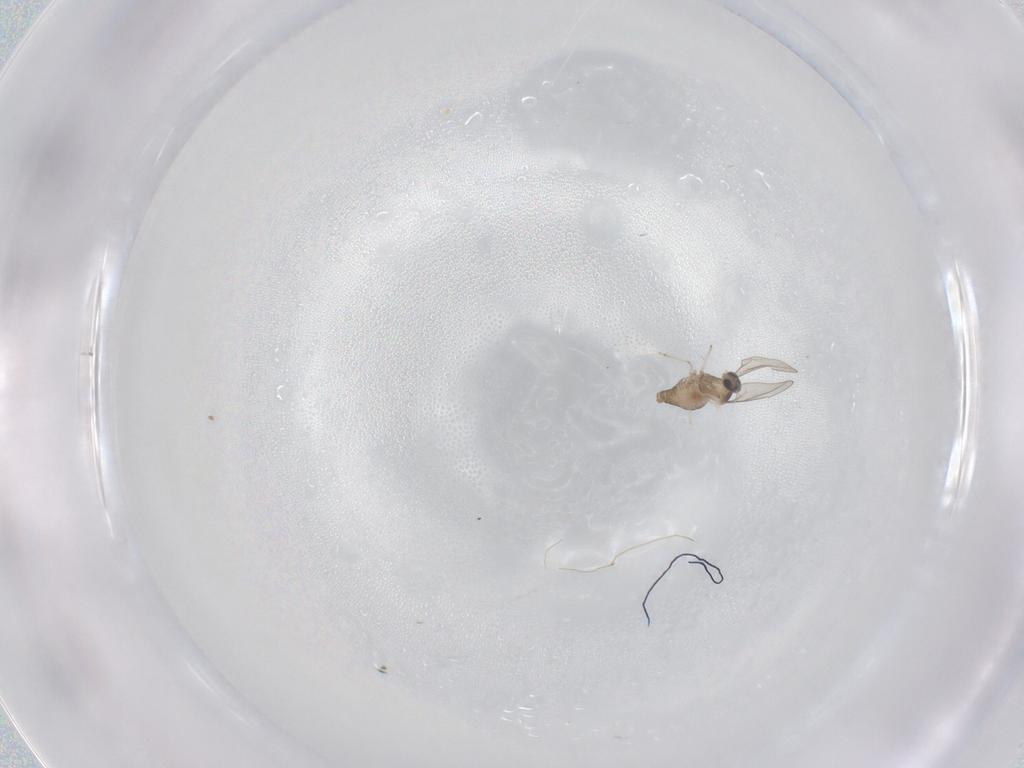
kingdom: Animalia
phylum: Arthropoda
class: Insecta
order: Diptera
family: Cecidomyiidae
